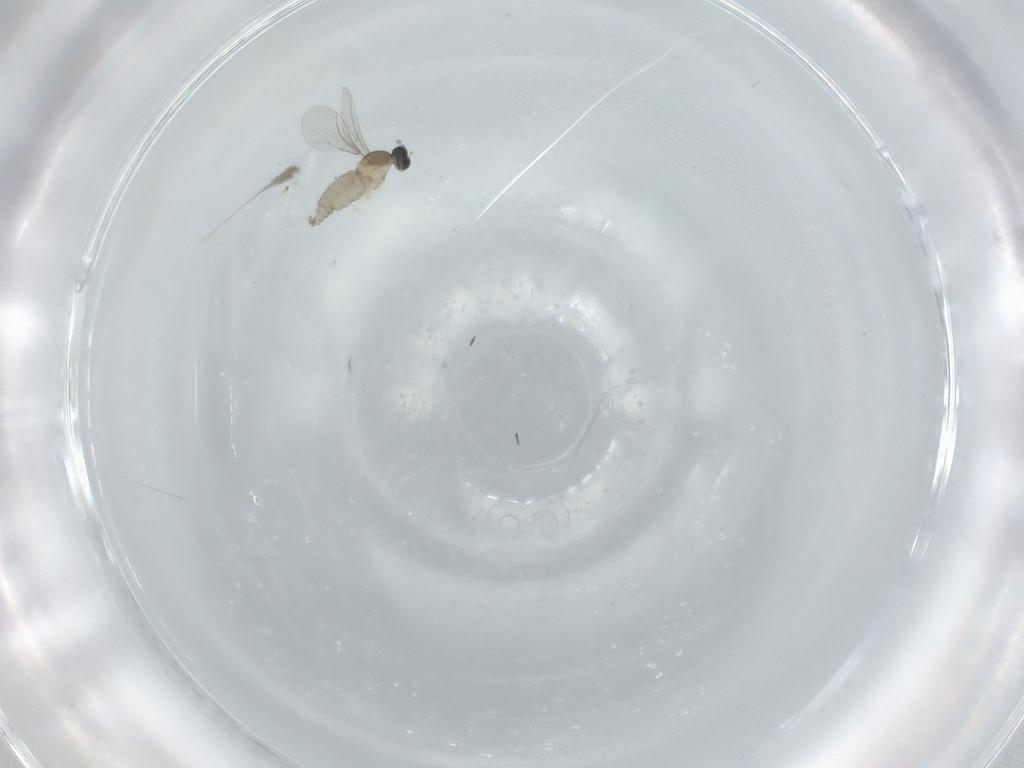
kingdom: Animalia
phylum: Arthropoda
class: Insecta
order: Diptera
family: Cecidomyiidae
